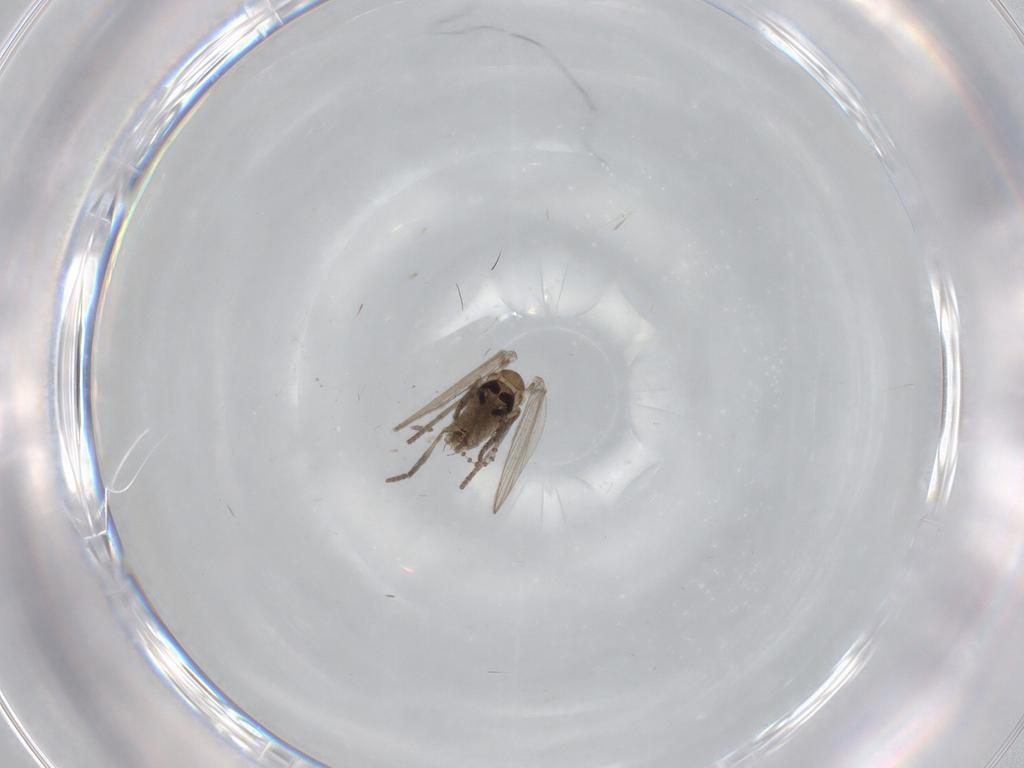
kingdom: Animalia
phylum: Arthropoda
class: Insecta
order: Diptera
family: Psychodidae
